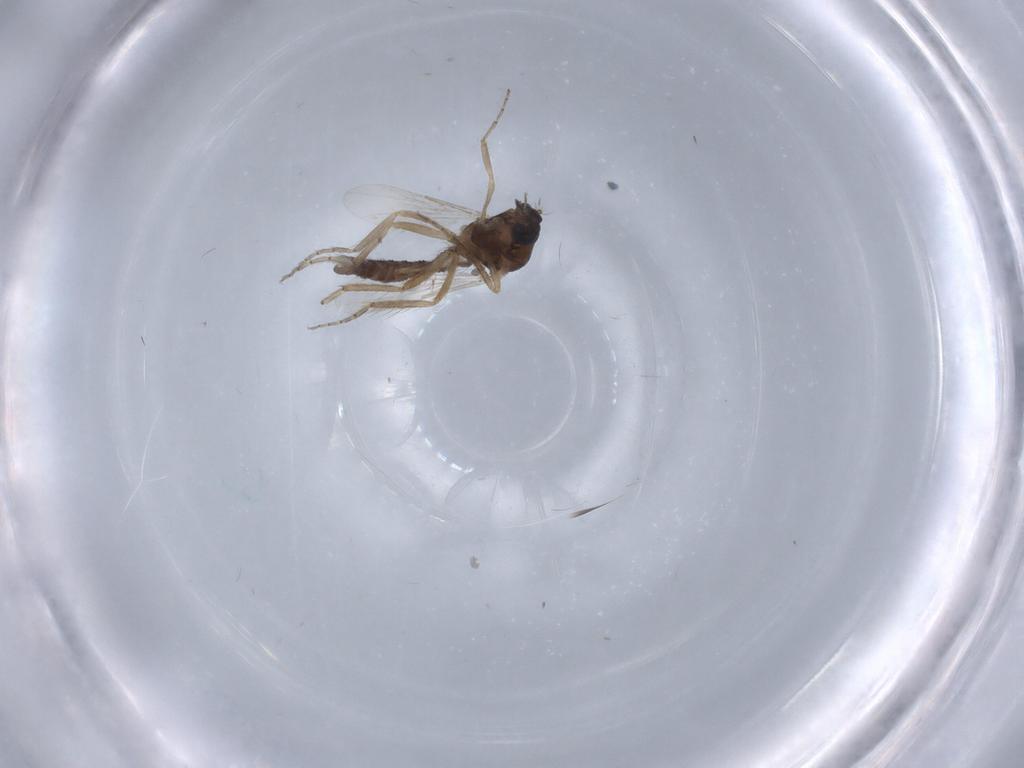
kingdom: Animalia
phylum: Arthropoda
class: Insecta
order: Diptera
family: Ceratopogonidae
